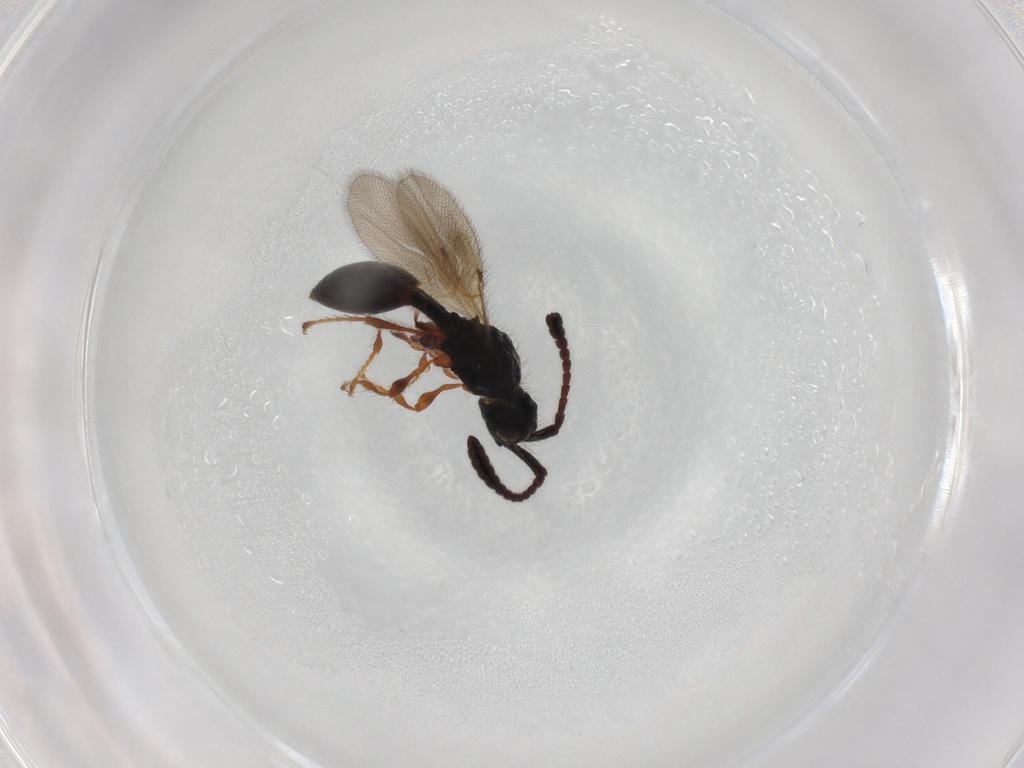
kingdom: Animalia
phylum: Arthropoda
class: Insecta
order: Hymenoptera
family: Diapriidae
